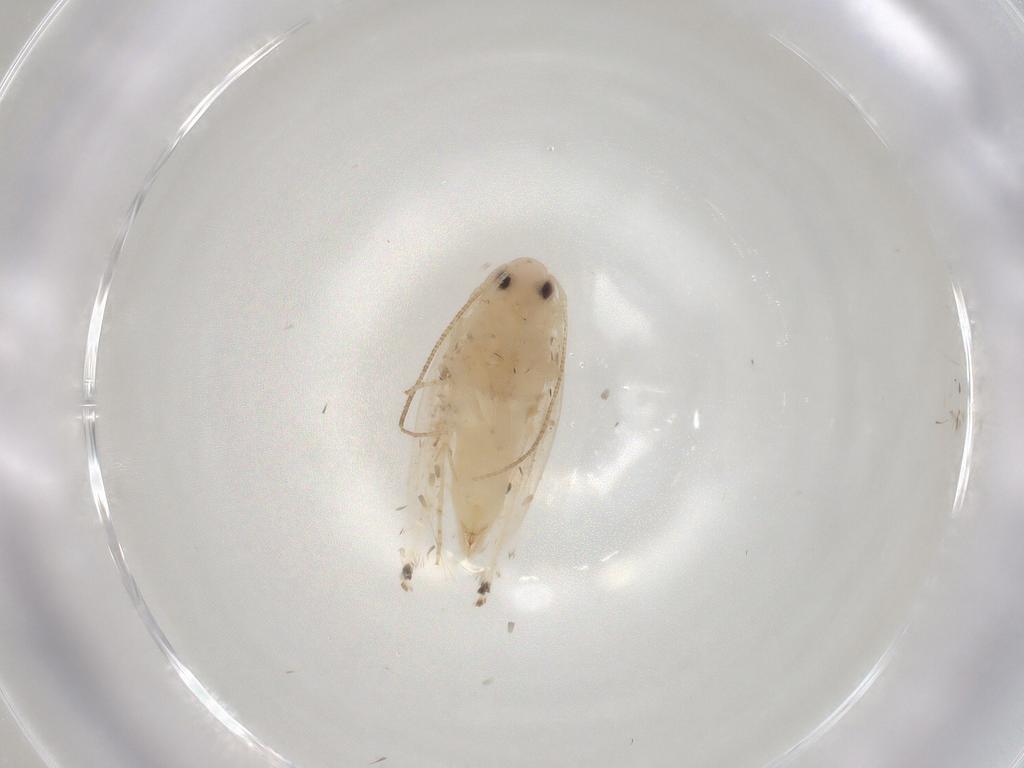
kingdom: Animalia
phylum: Arthropoda
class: Insecta
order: Lepidoptera
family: Gracillariidae
